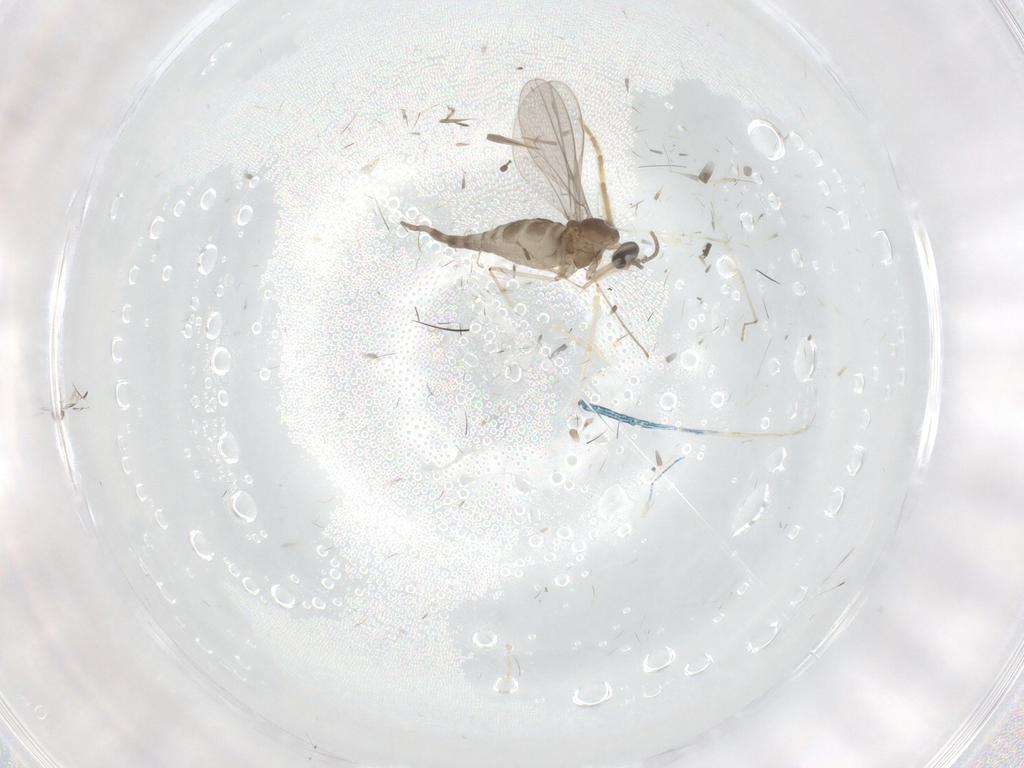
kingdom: Animalia
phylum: Arthropoda
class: Insecta
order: Diptera
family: Chironomidae
